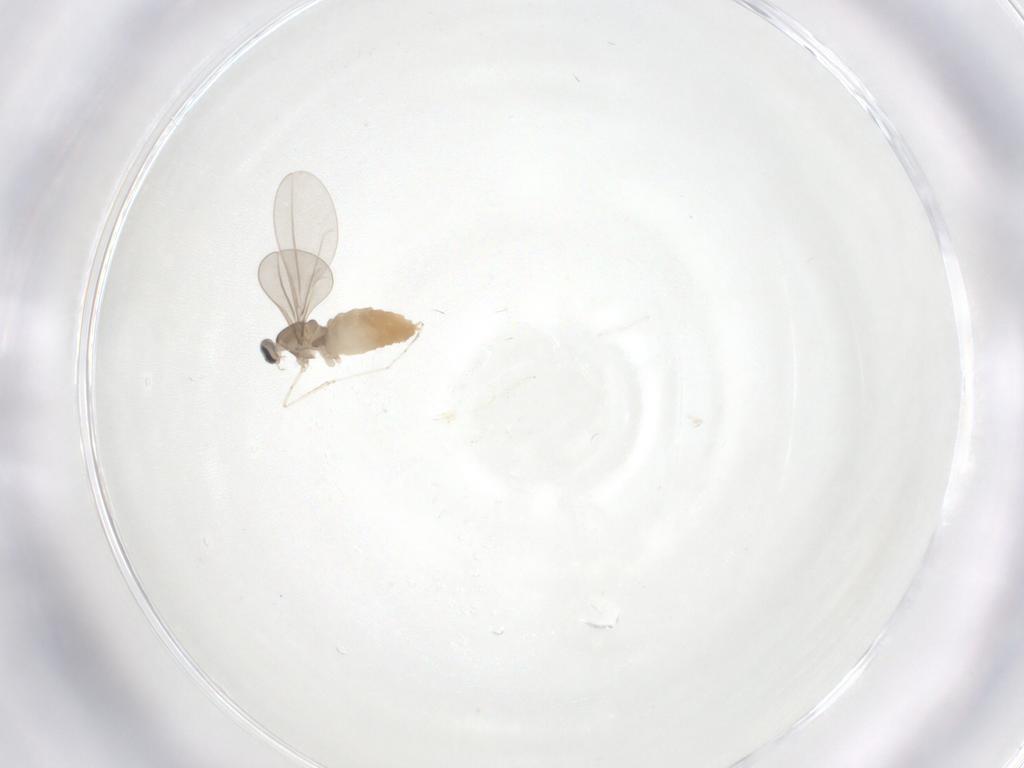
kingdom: Animalia
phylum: Arthropoda
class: Insecta
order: Diptera
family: Cecidomyiidae
